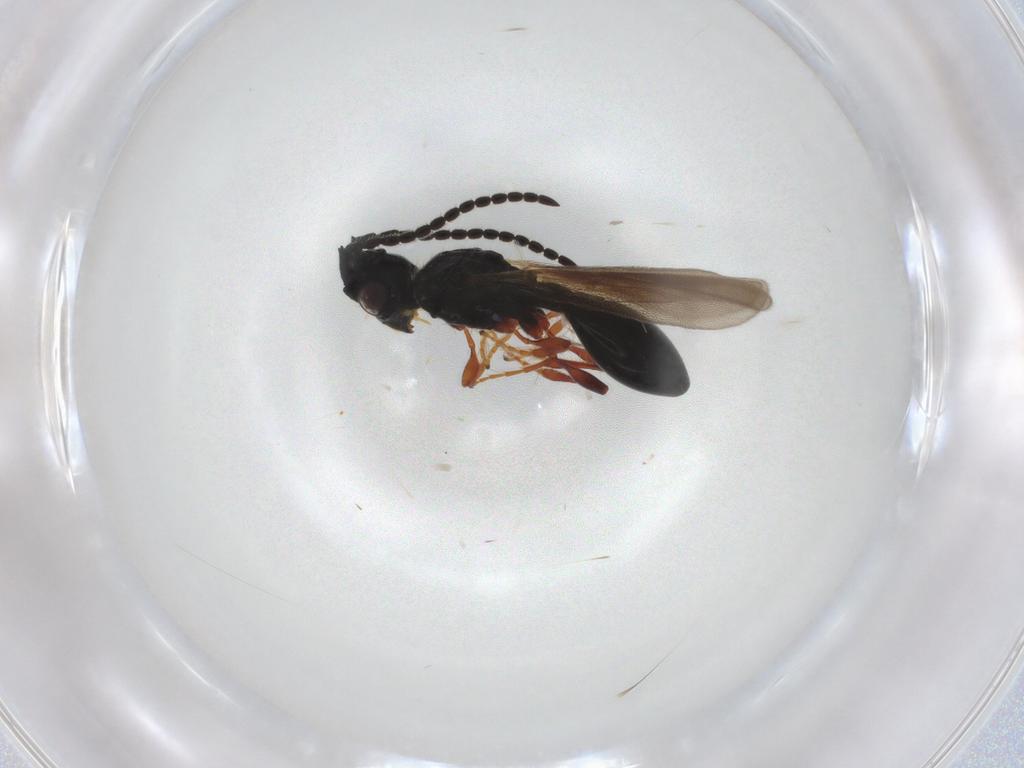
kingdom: Animalia
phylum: Arthropoda
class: Insecta
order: Hymenoptera
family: Diapriidae
